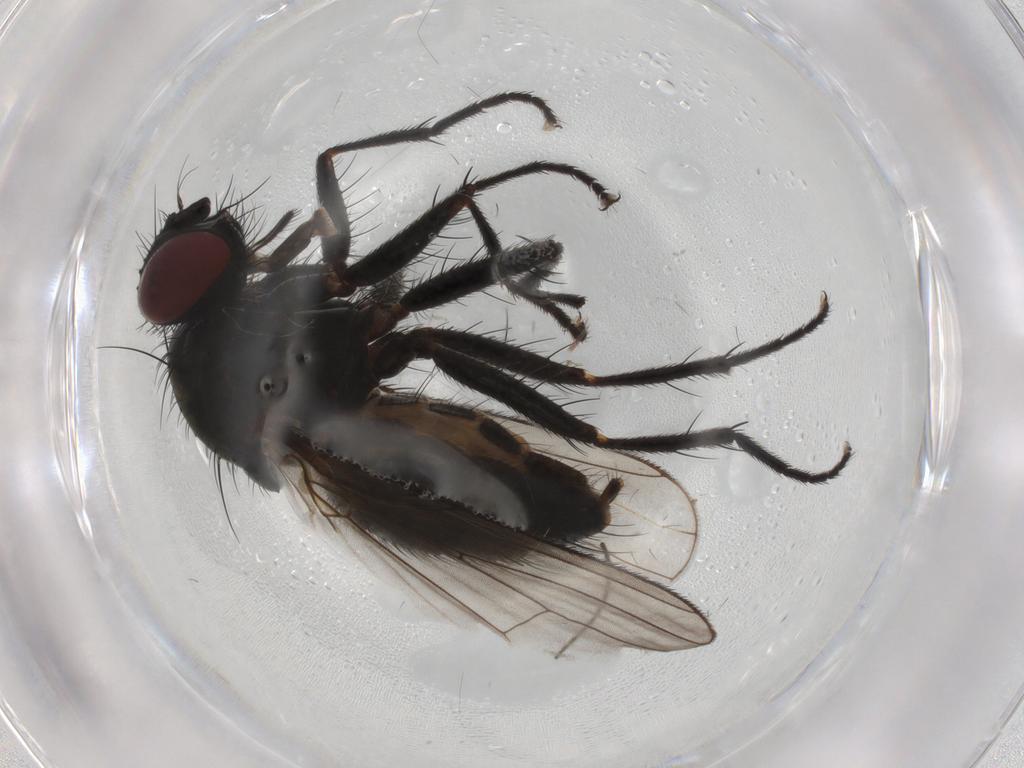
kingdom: Animalia
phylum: Arthropoda
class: Insecta
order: Diptera
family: Muscidae
